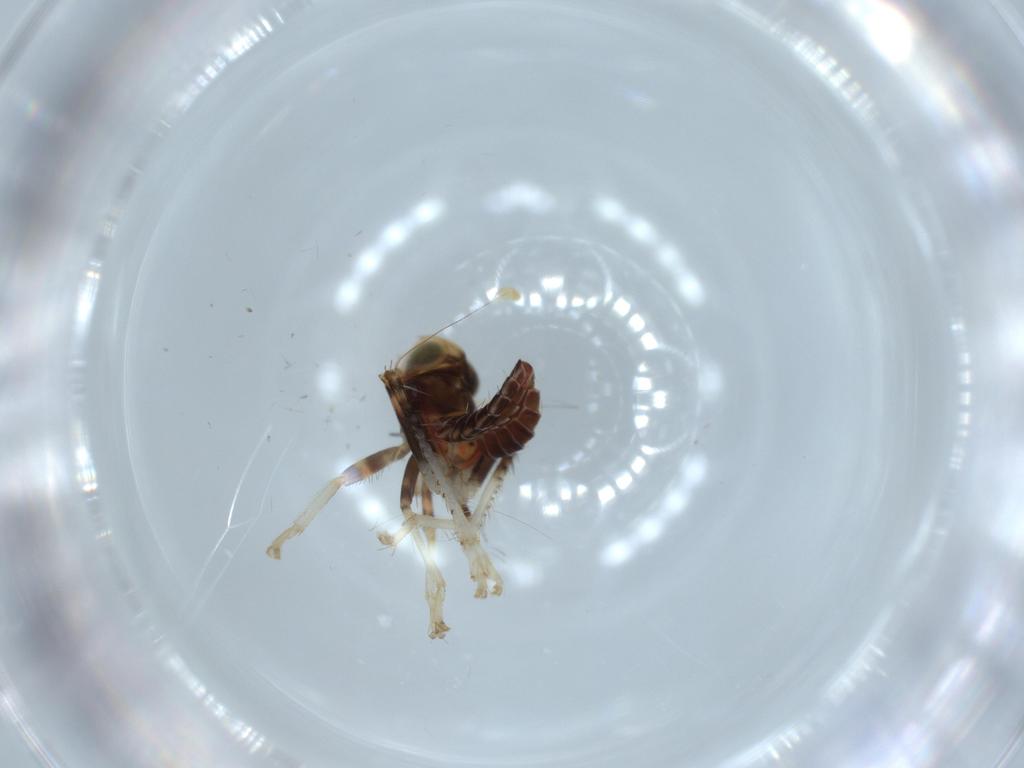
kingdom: Animalia
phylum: Arthropoda
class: Insecta
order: Hemiptera
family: Cicadellidae
